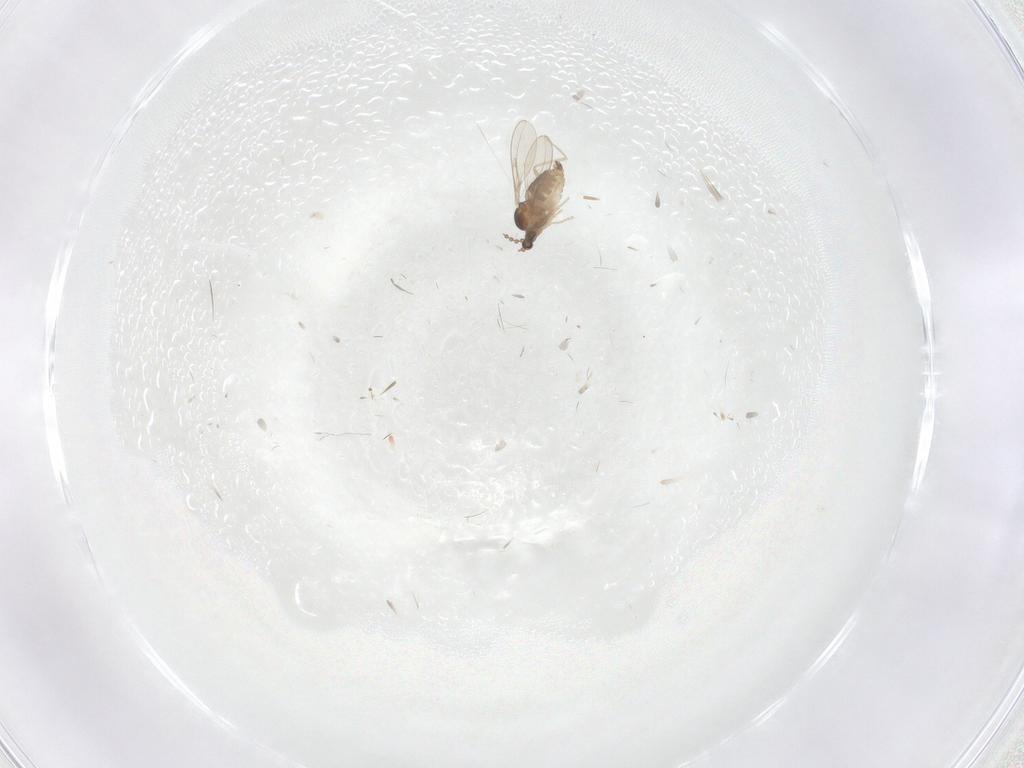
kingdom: Animalia
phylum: Arthropoda
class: Insecta
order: Diptera
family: Cecidomyiidae
